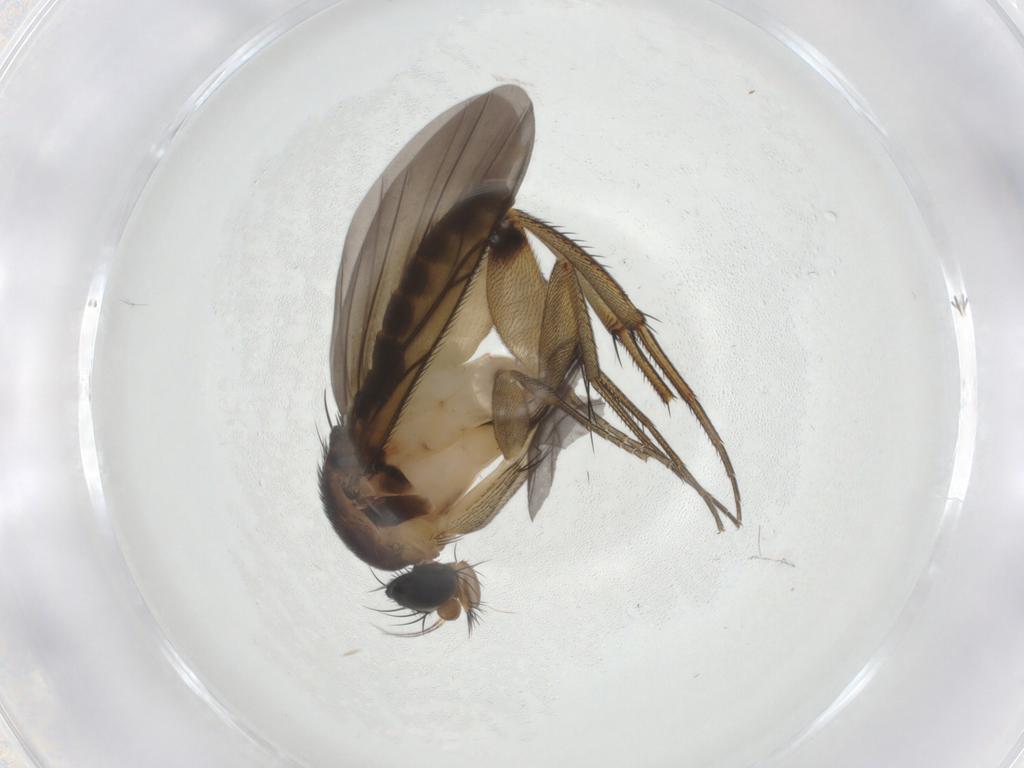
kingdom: Animalia
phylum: Arthropoda
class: Insecta
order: Diptera
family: Phoridae
